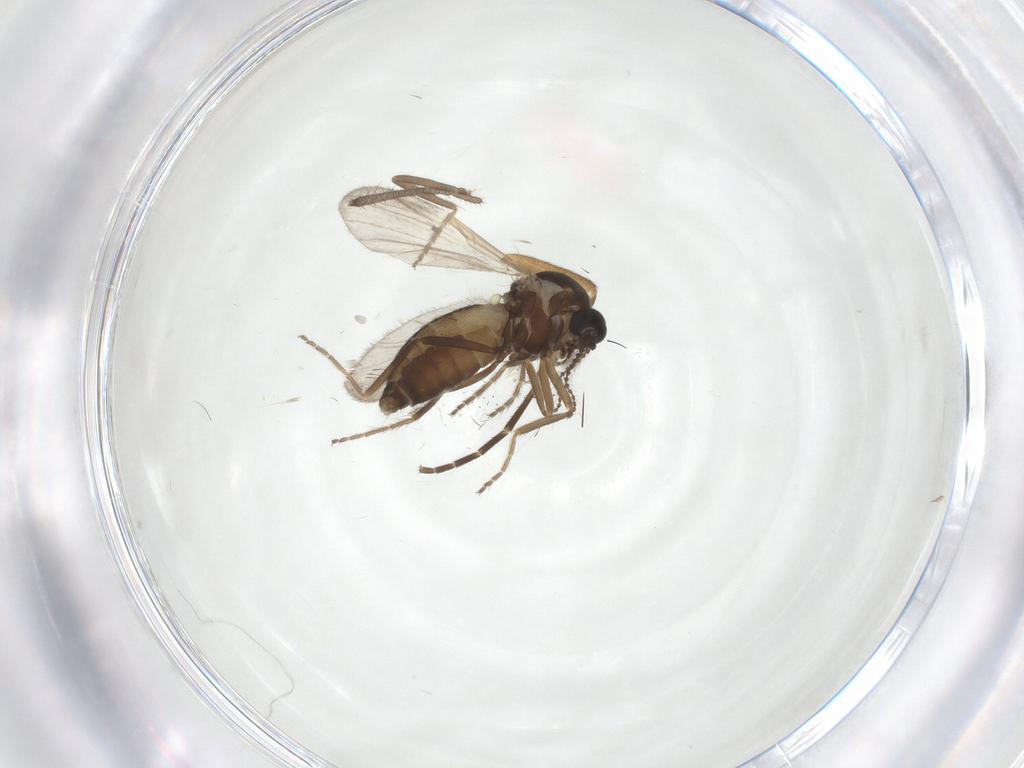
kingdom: Animalia
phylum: Arthropoda
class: Insecta
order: Diptera
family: Ceratopogonidae
